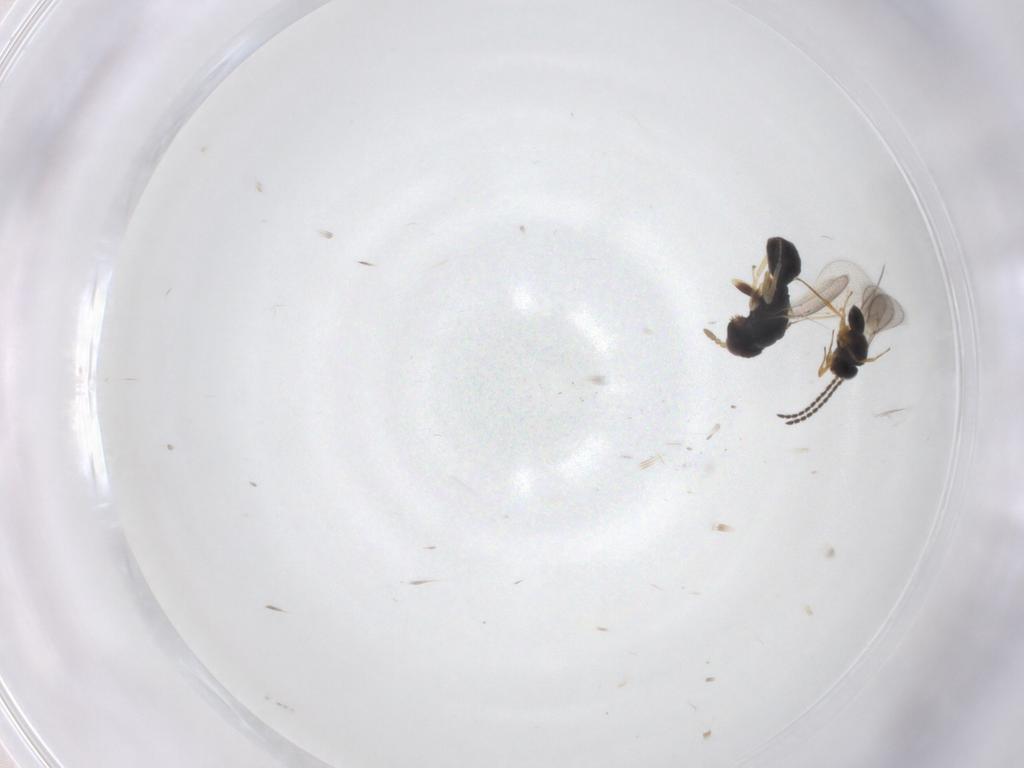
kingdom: Animalia
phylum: Arthropoda
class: Insecta
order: Hymenoptera
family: Eulophidae
